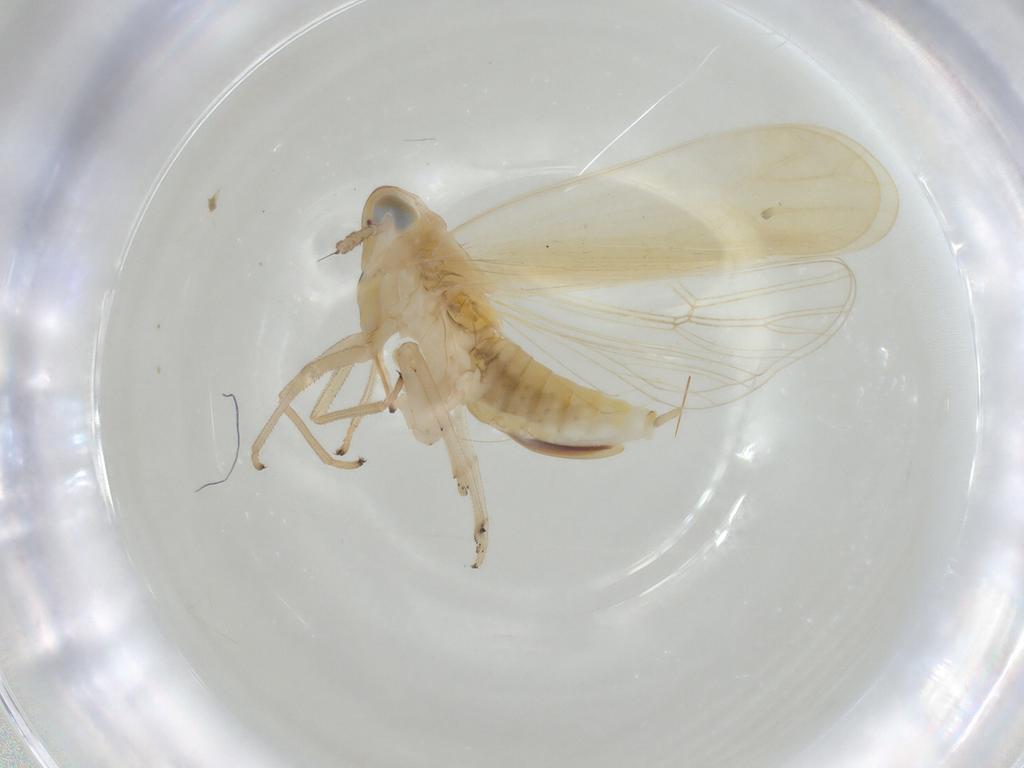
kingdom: Animalia
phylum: Arthropoda
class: Insecta
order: Hemiptera
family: Delphacidae
